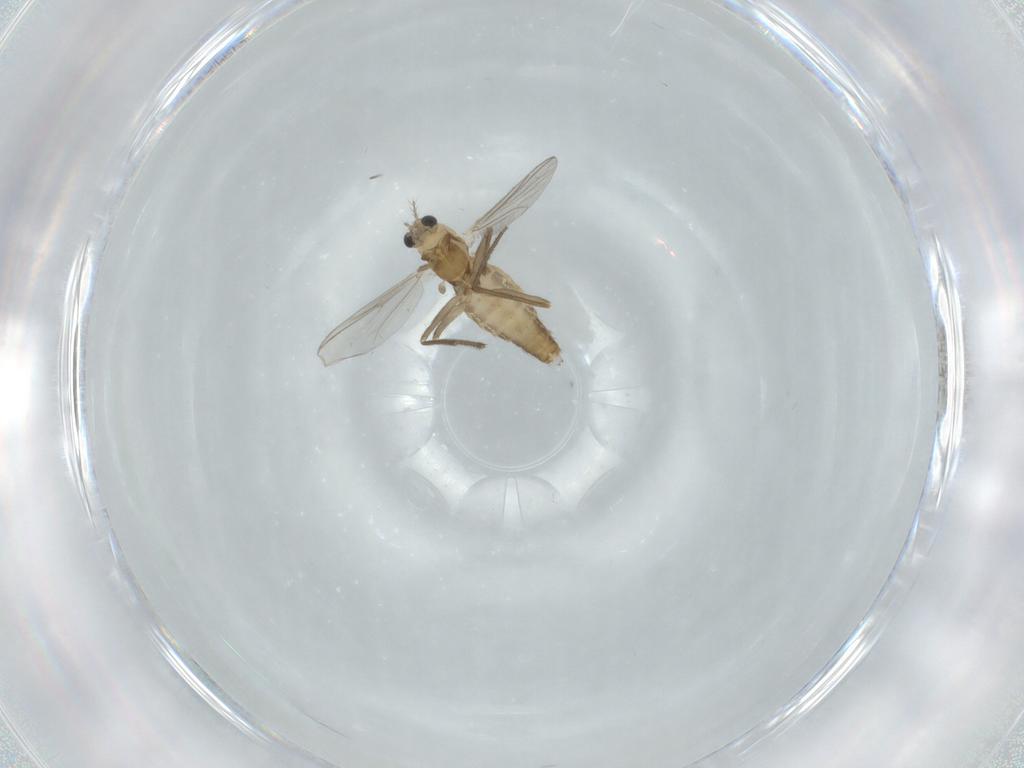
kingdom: Animalia
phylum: Arthropoda
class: Insecta
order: Diptera
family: Chironomidae
